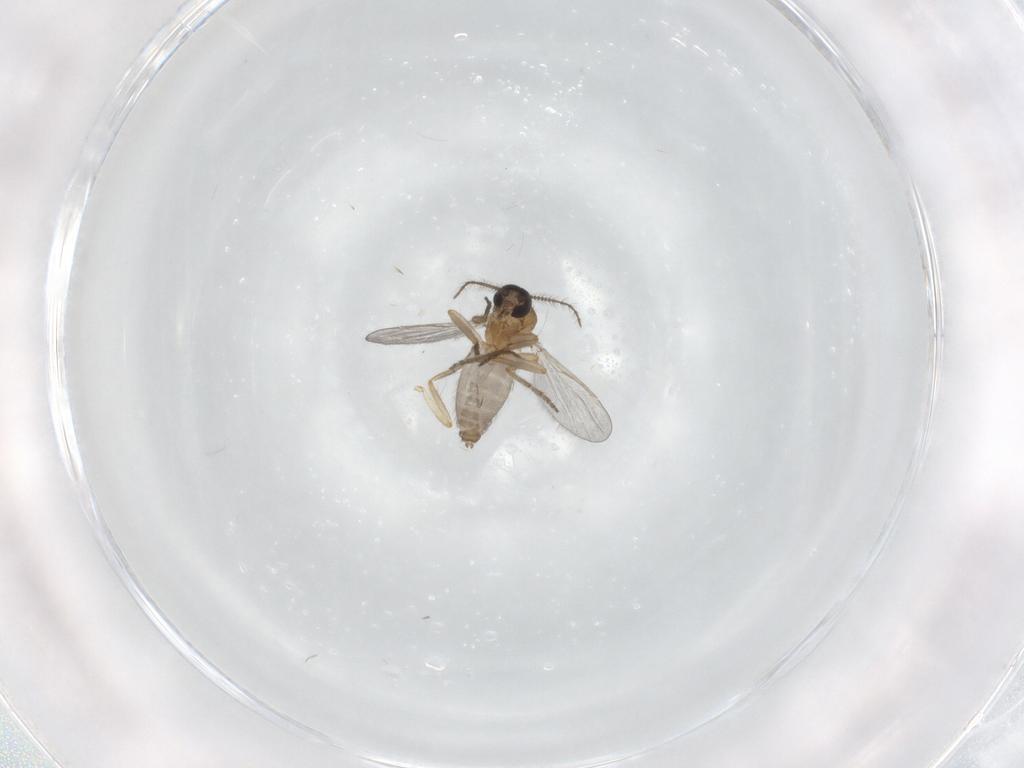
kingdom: Animalia
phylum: Arthropoda
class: Insecta
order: Diptera
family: Ceratopogonidae
